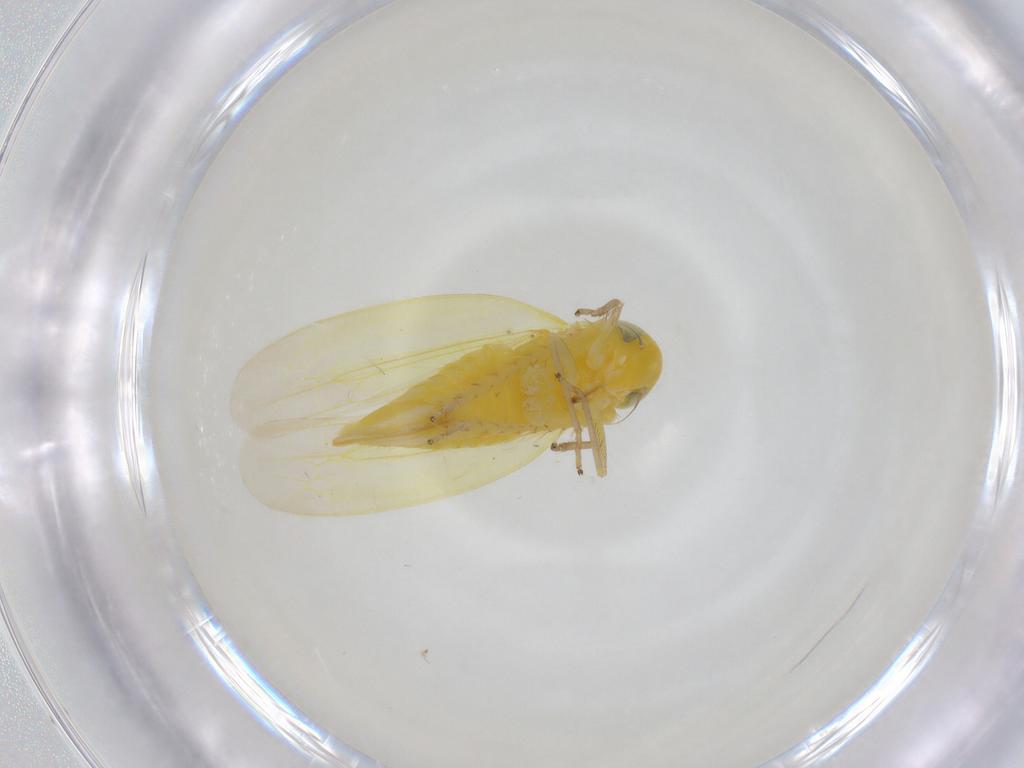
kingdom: Animalia
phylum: Arthropoda
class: Insecta
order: Hemiptera
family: Cicadellidae
